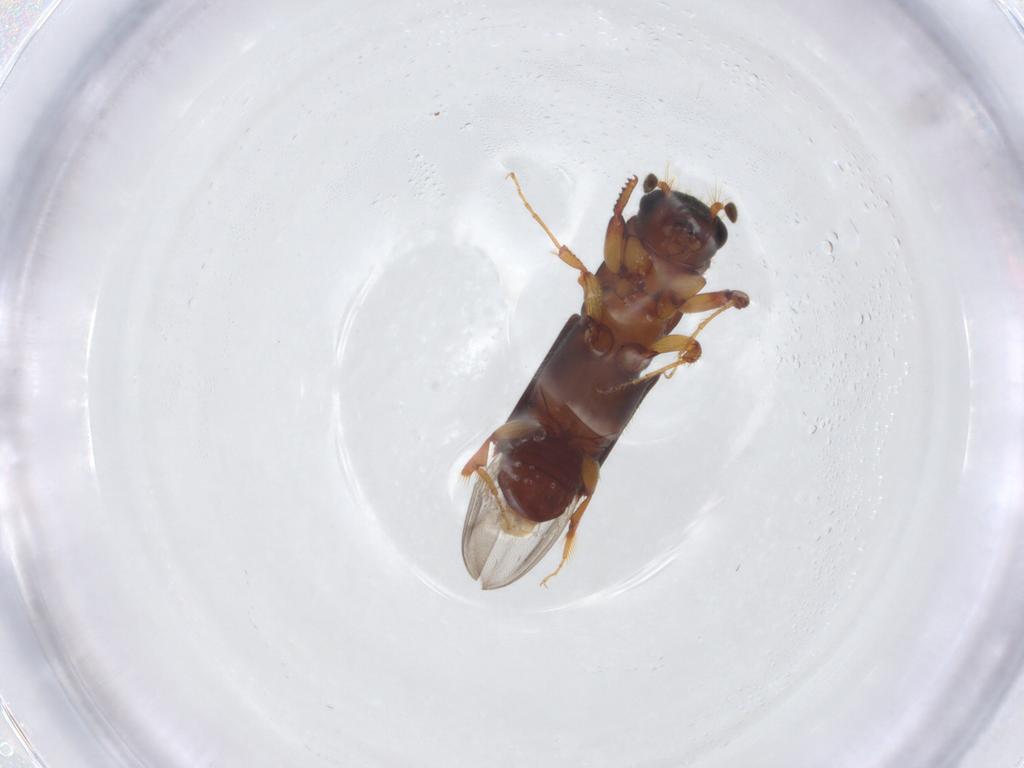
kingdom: Animalia
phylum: Arthropoda
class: Insecta
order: Coleoptera
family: Curculionidae
